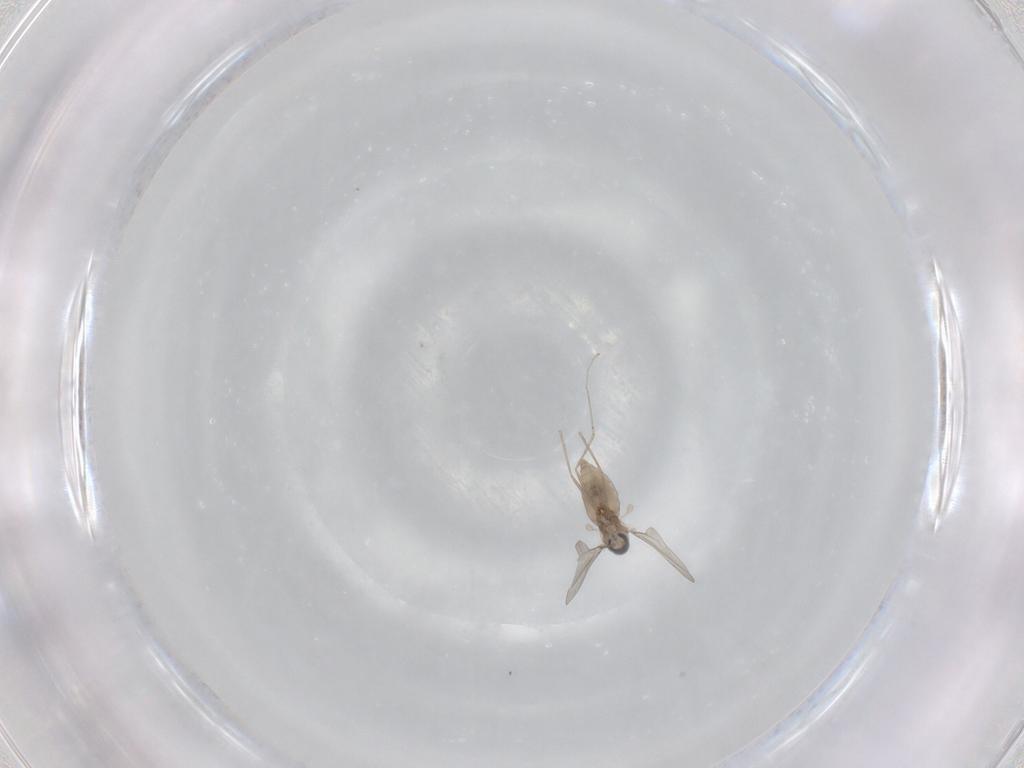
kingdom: Animalia
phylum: Arthropoda
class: Insecta
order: Diptera
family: Cecidomyiidae
